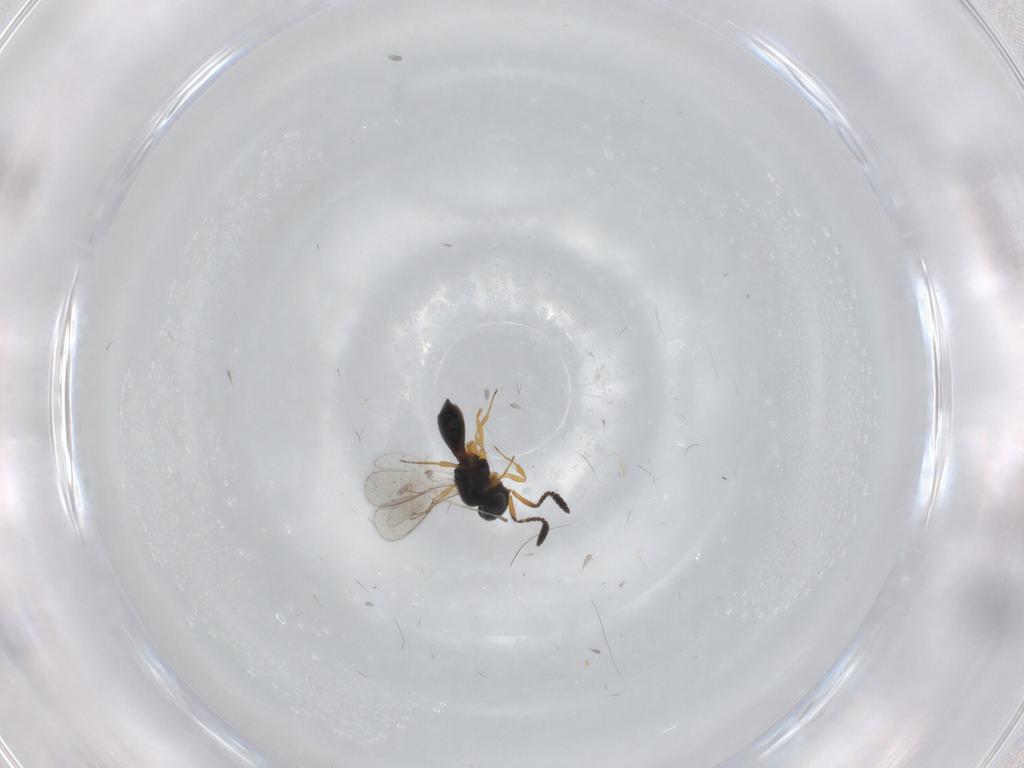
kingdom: Animalia
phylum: Arthropoda
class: Insecta
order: Hymenoptera
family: Scelionidae
